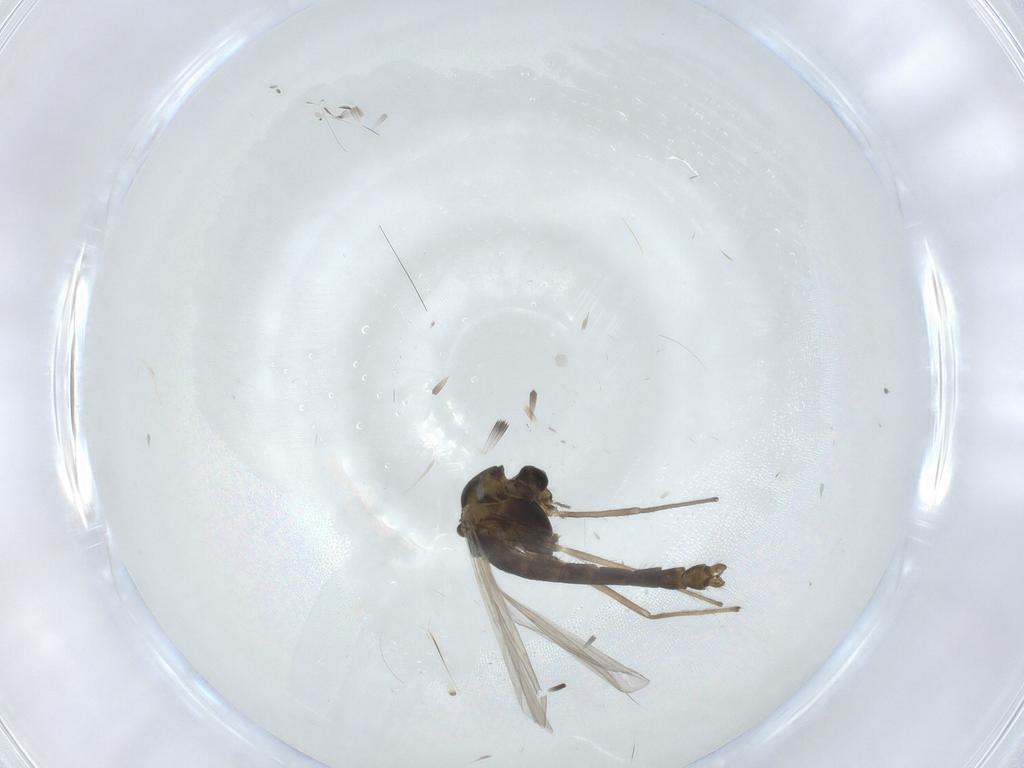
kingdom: Animalia
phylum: Arthropoda
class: Insecta
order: Diptera
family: Chironomidae
